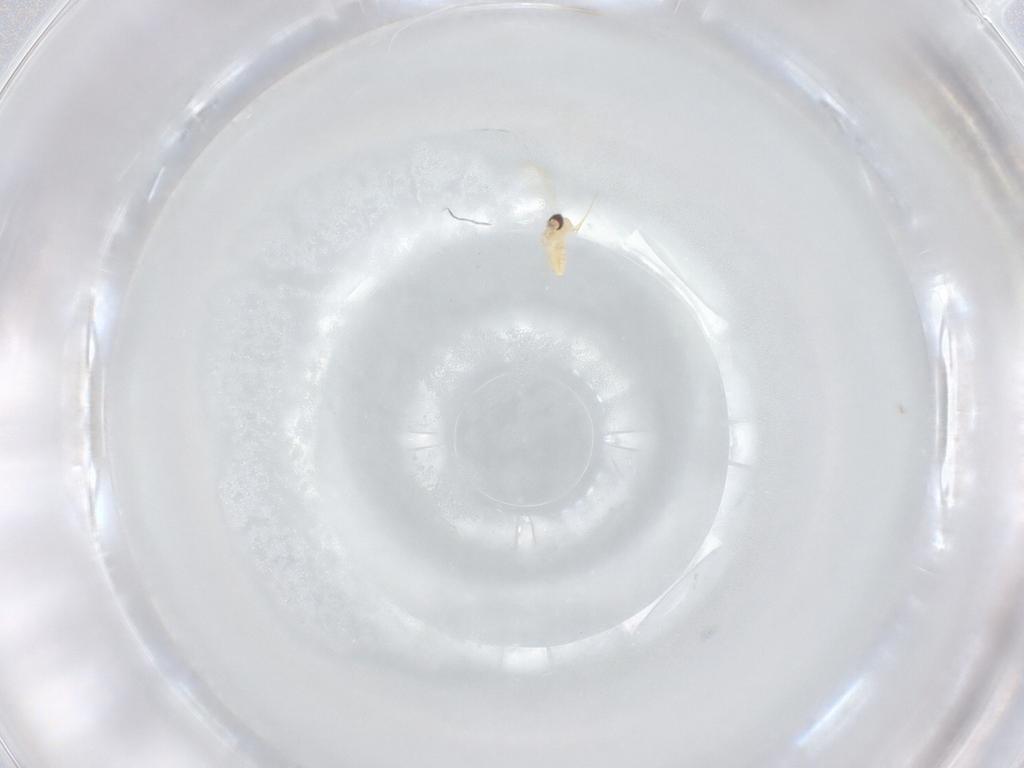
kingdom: Animalia
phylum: Arthropoda
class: Insecta
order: Diptera
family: Cecidomyiidae
